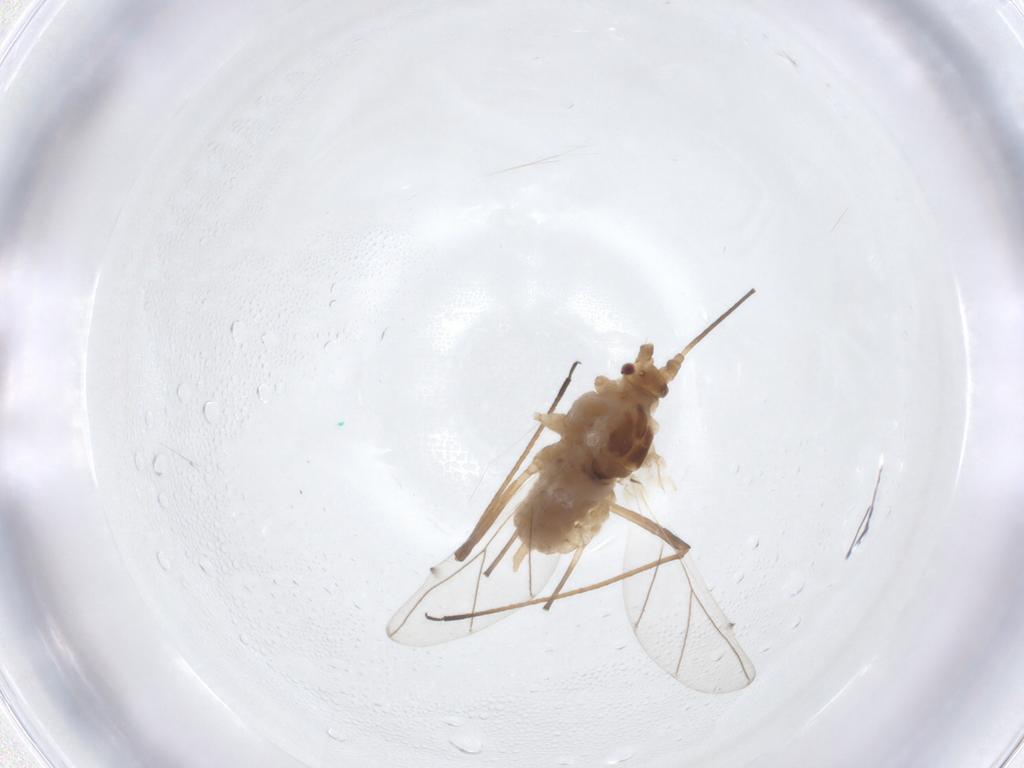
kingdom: Animalia
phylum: Arthropoda
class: Insecta
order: Hemiptera
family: Aphididae
